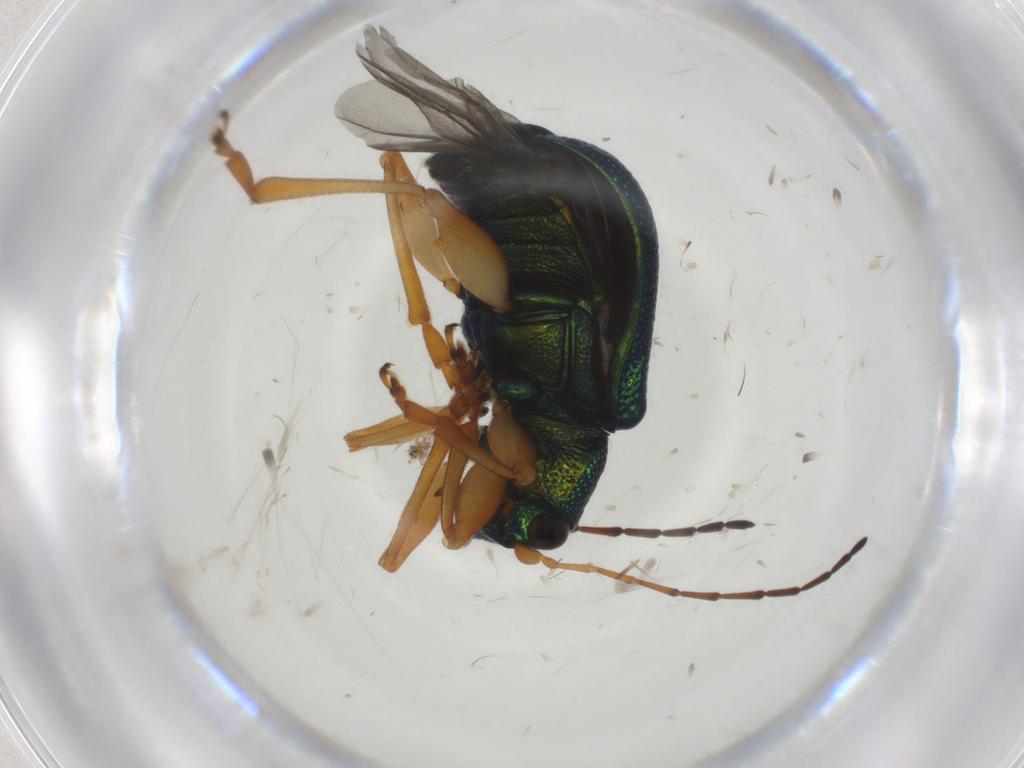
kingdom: Animalia
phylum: Arthropoda
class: Insecta
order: Coleoptera
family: Chrysomelidae
